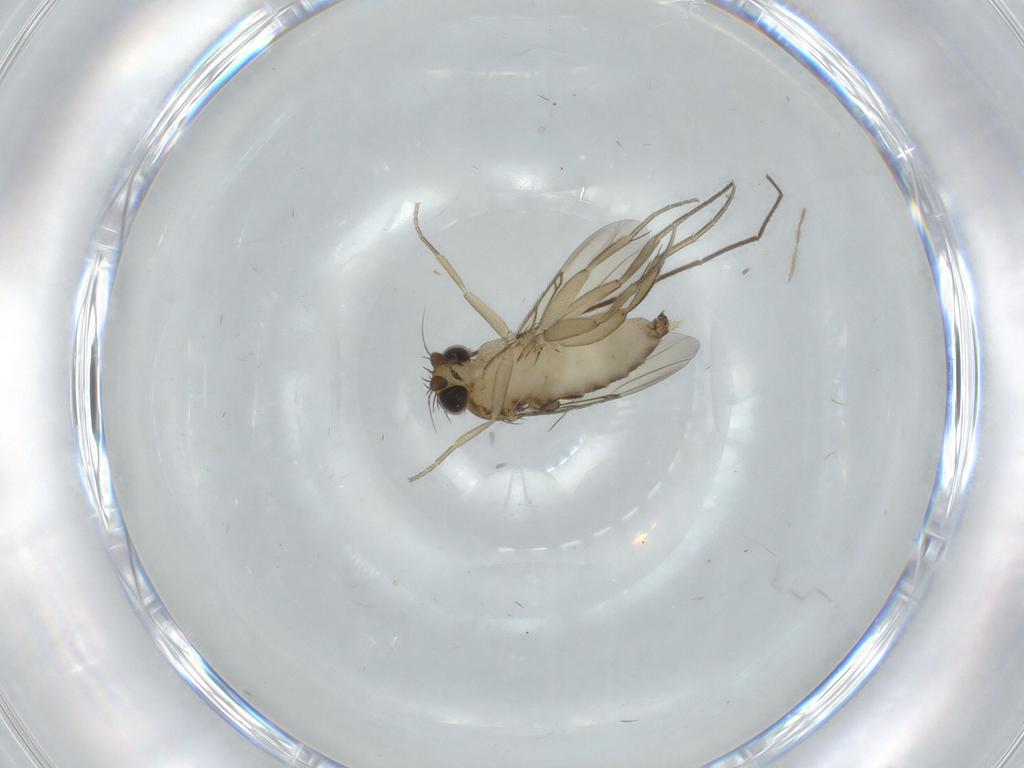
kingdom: Animalia
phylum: Arthropoda
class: Insecta
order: Diptera
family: Phoridae
